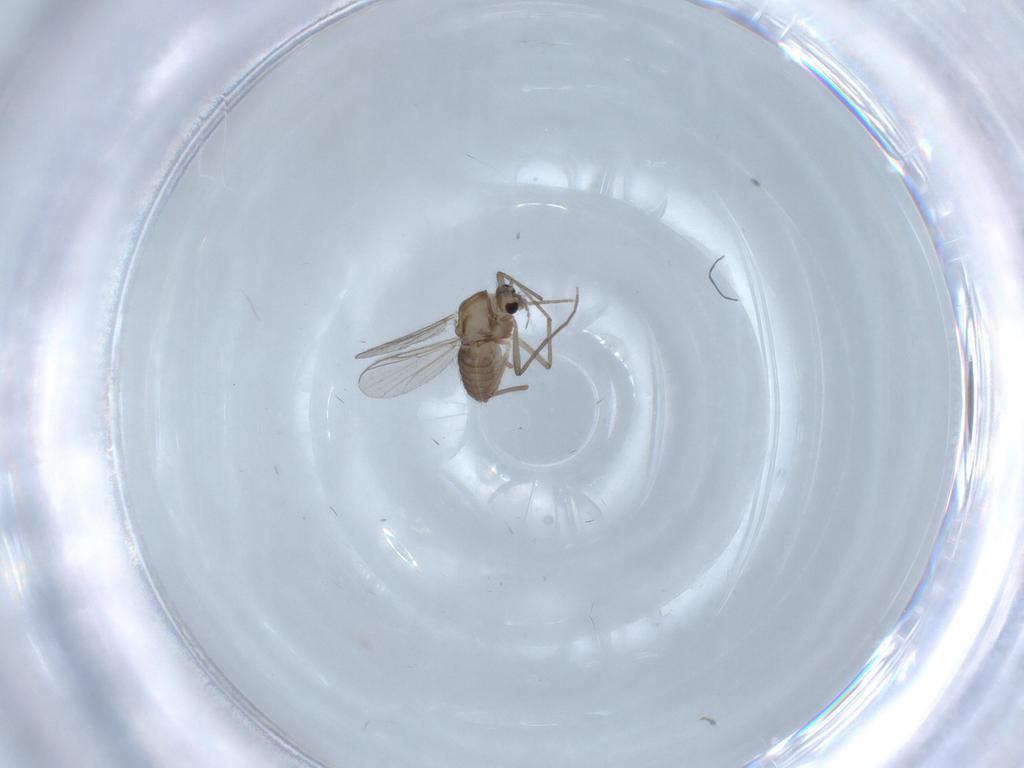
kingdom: Animalia
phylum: Arthropoda
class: Insecta
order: Diptera
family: Chironomidae
